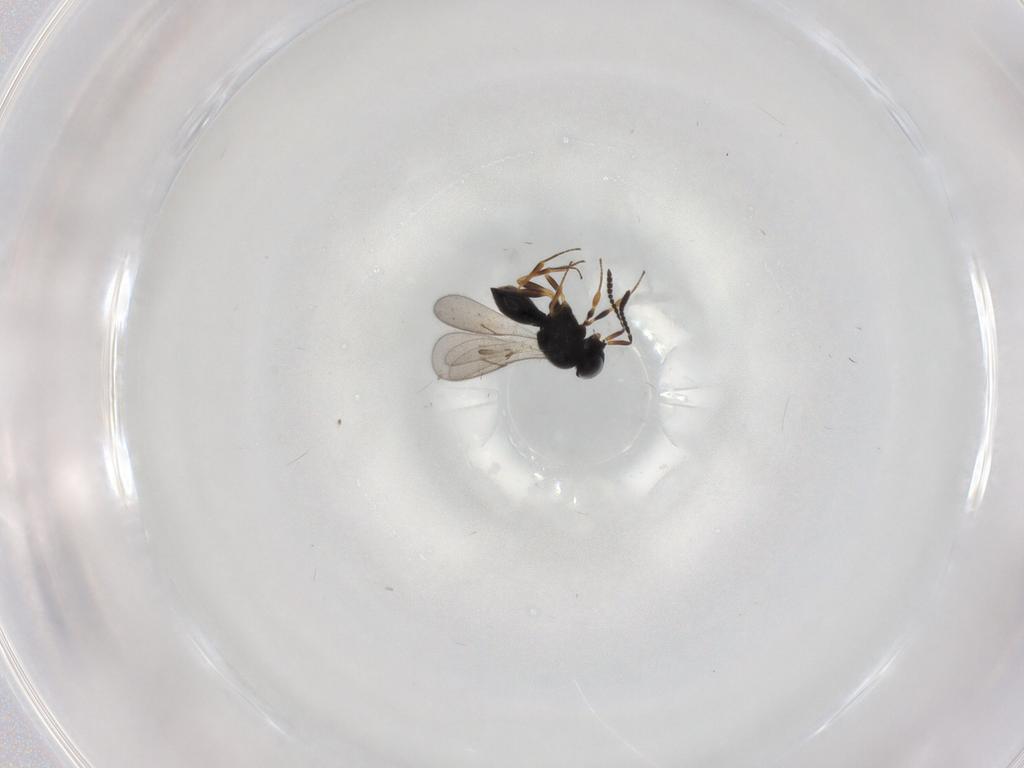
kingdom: Animalia
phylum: Arthropoda
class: Insecta
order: Hymenoptera
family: Scelionidae
